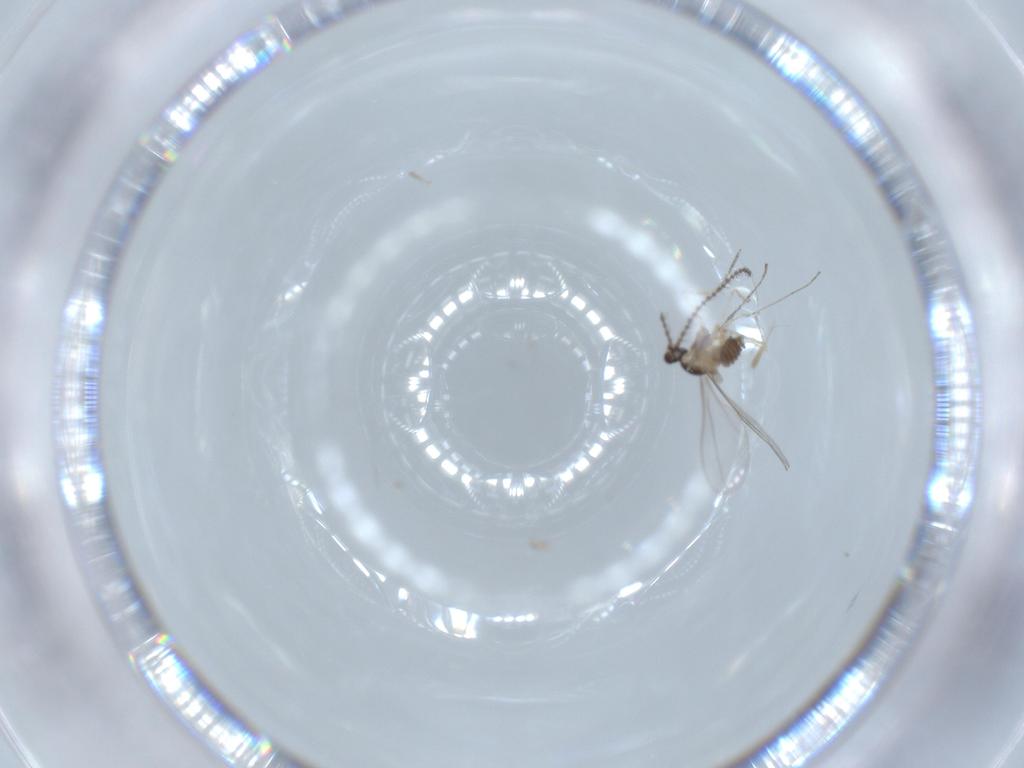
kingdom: Animalia
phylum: Arthropoda
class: Insecta
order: Diptera
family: Cecidomyiidae
